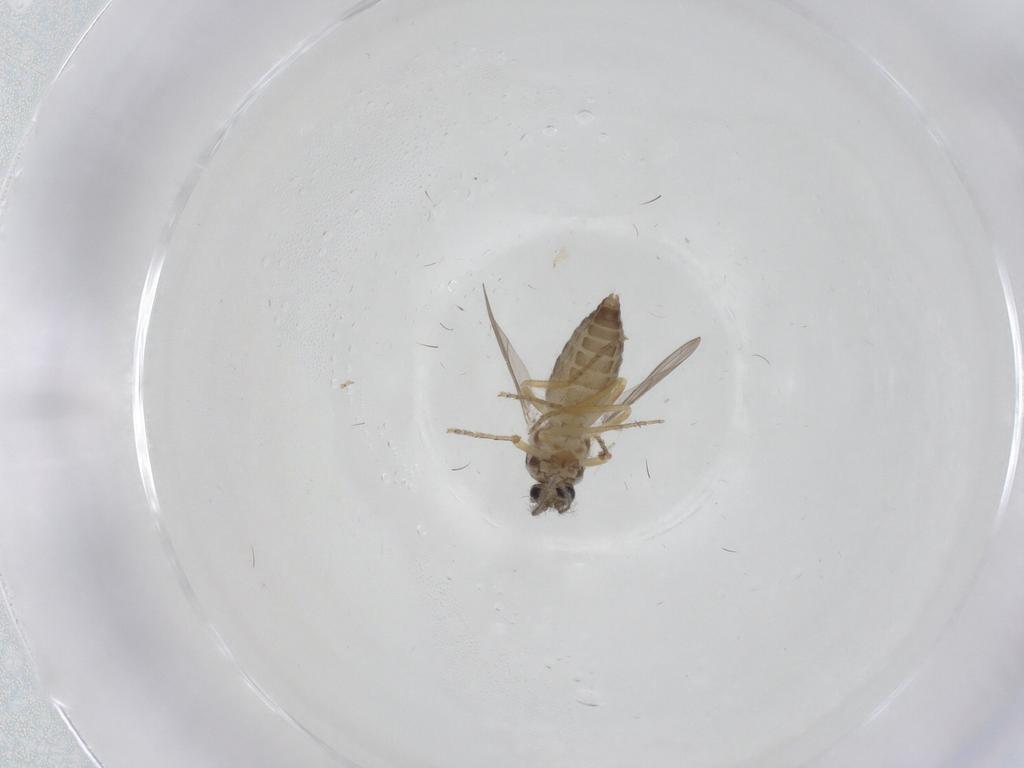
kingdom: Animalia
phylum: Arthropoda
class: Insecta
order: Diptera
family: Ceratopogonidae
